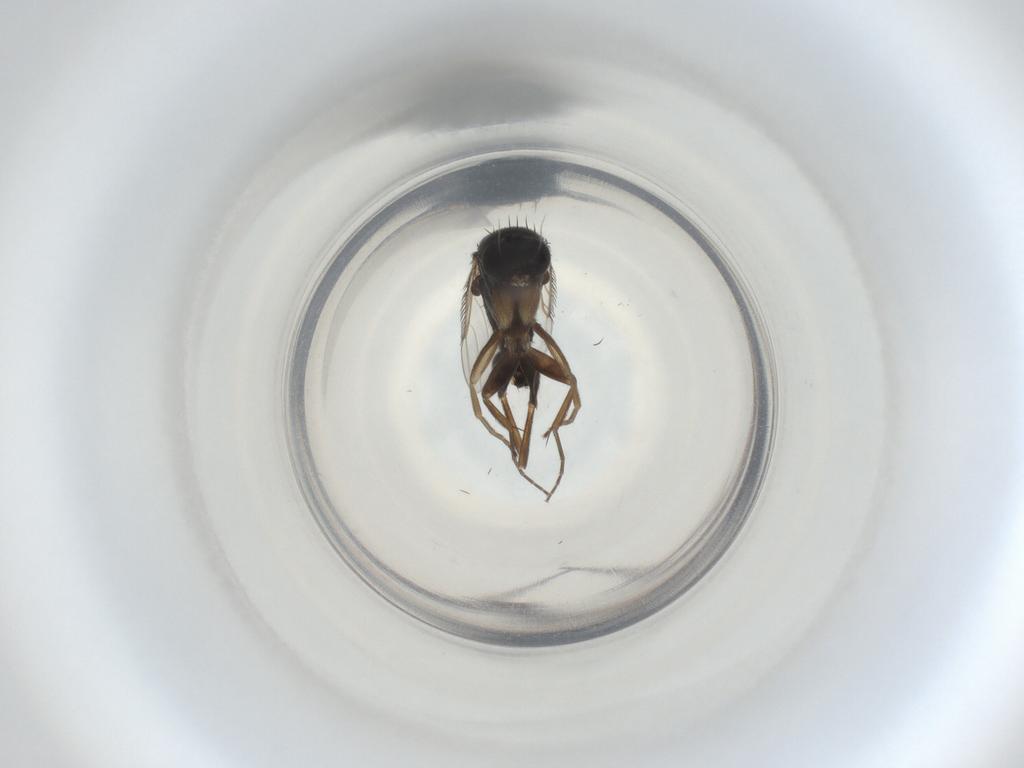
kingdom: Animalia
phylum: Arthropoda
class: Insecta
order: Diptera
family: Phoridae
